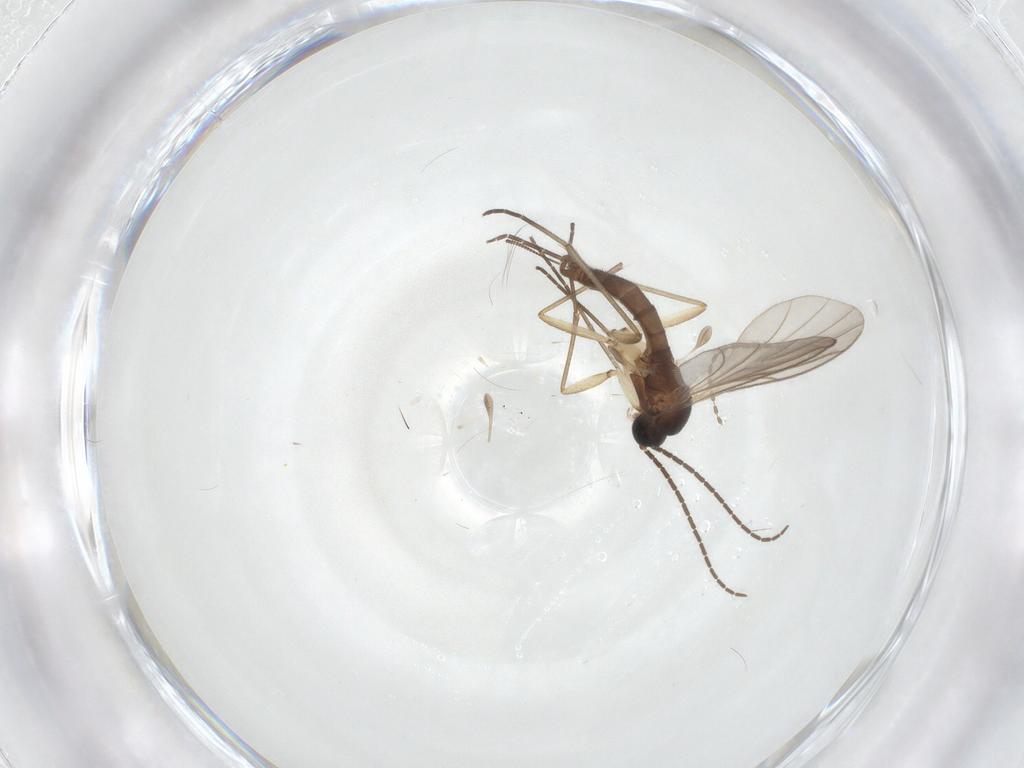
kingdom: Animalia
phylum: Arthropoda
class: Insecta
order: Diptera
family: Sciaridae
